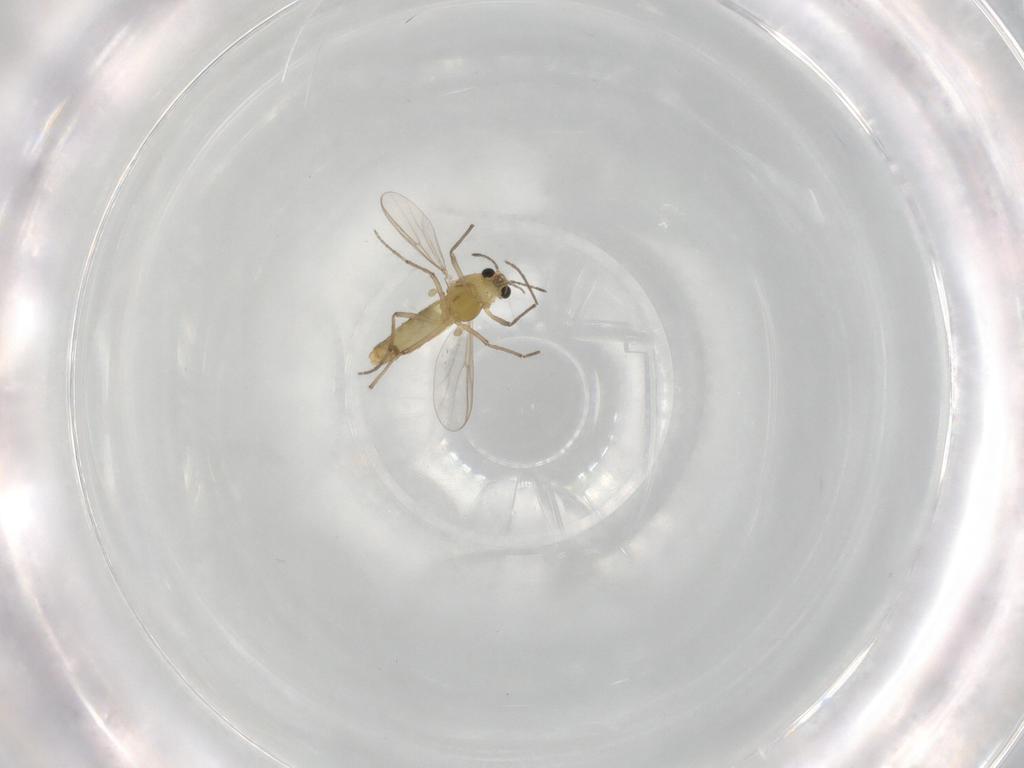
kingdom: Animalia
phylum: Arthropoda
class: Insecta
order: Diptera
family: Chironomidae
